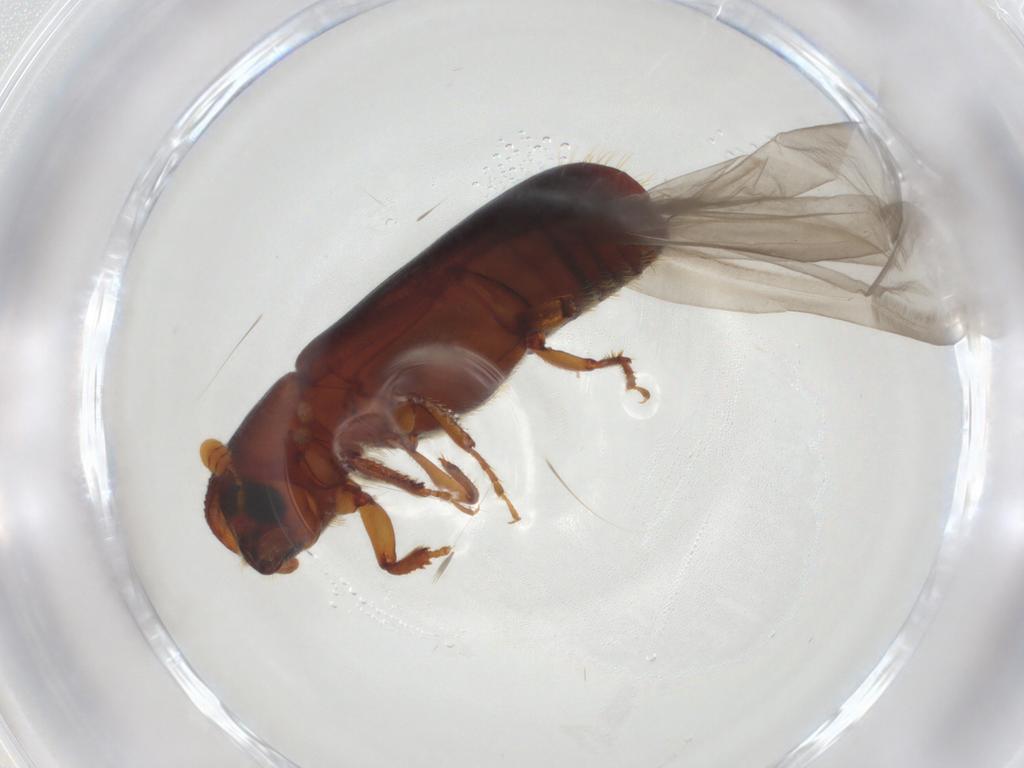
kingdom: Animalia
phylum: Arthropoda
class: Insecta
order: Coleoptera
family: Curculionidae
